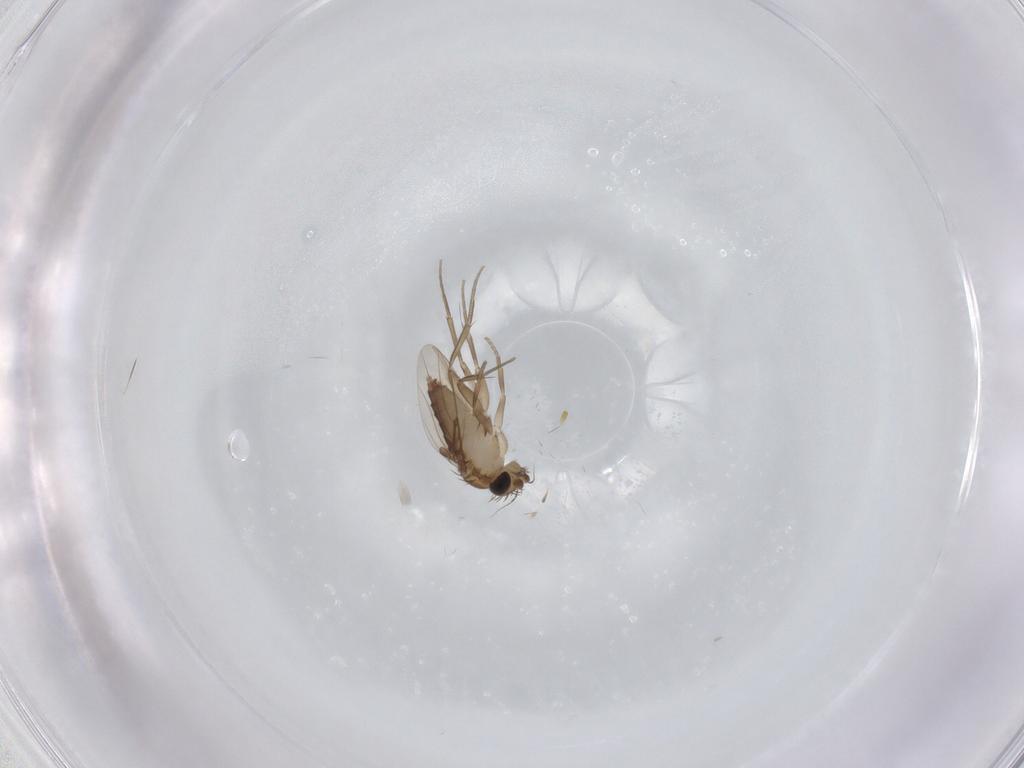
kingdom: Animalia
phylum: Arthropoda
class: Insecta
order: Diptera
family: Phoridae
